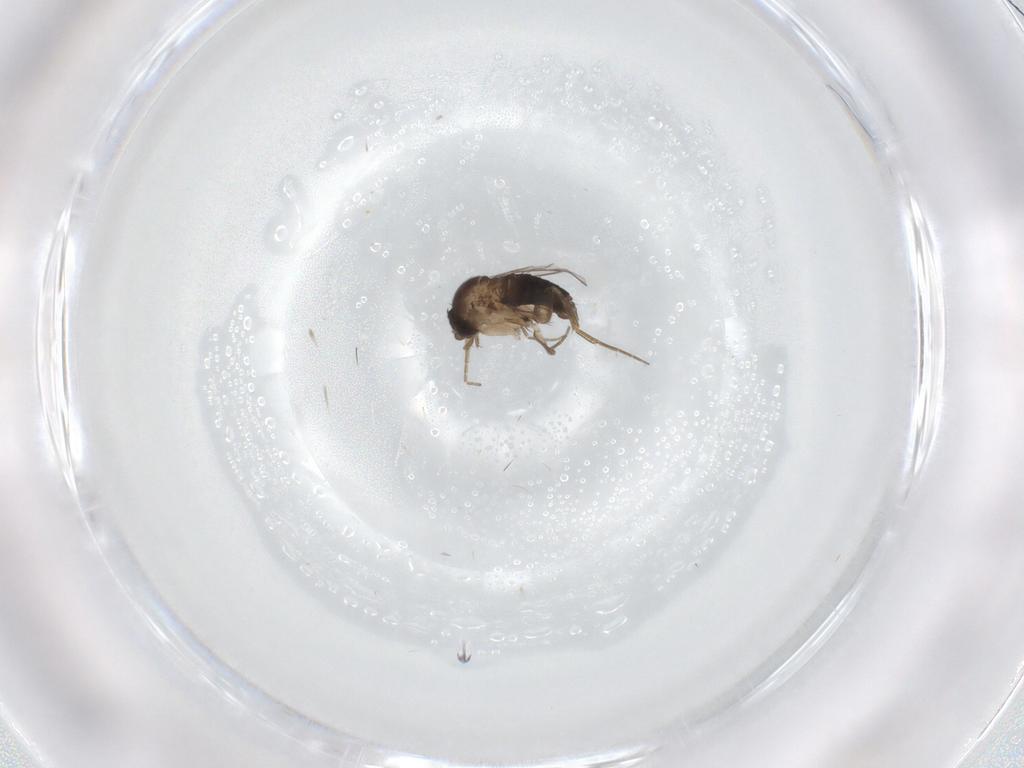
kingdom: Animalia
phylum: Arthropoda
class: Insecta
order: Diptera
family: Phoridae
